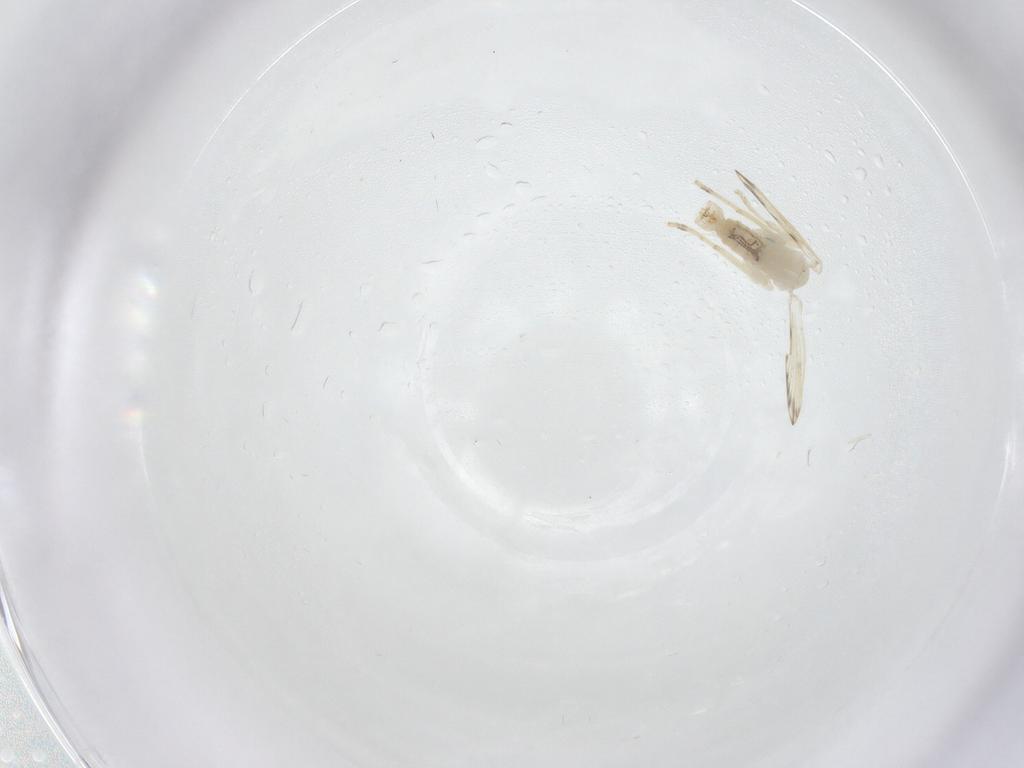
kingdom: Animalia
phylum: Arthropoda
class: Insecta
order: Diptera
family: Psychodidae
